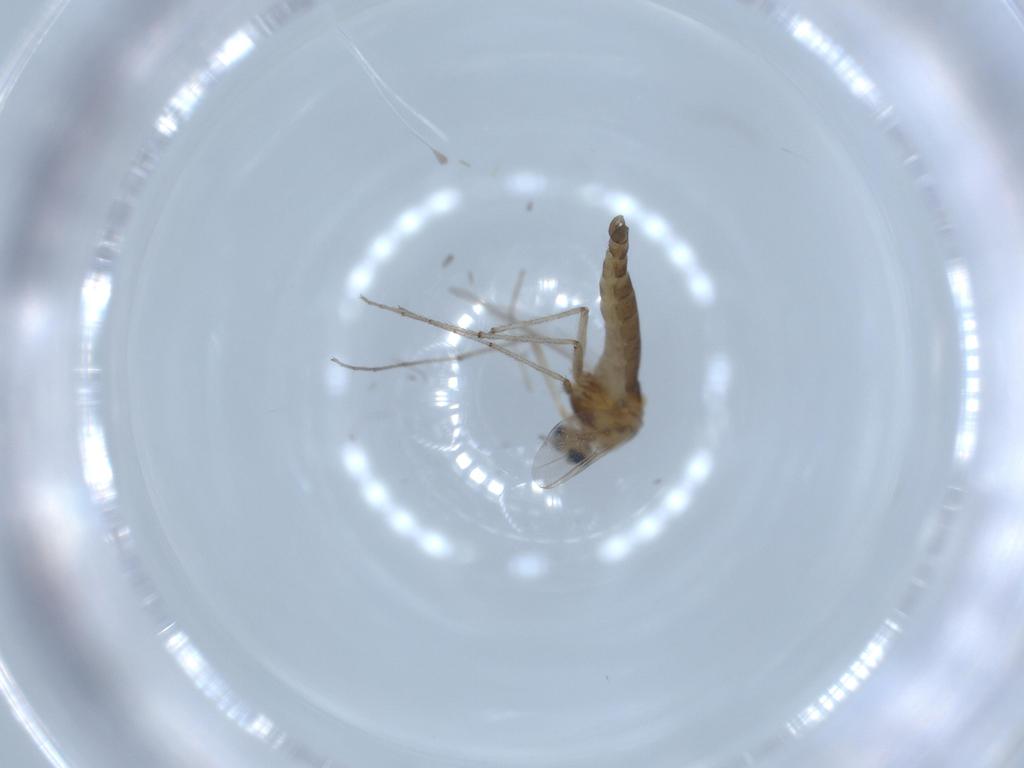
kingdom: Animalia
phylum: Arthropoda
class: Insecta
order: Diptera
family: Chironomidae
